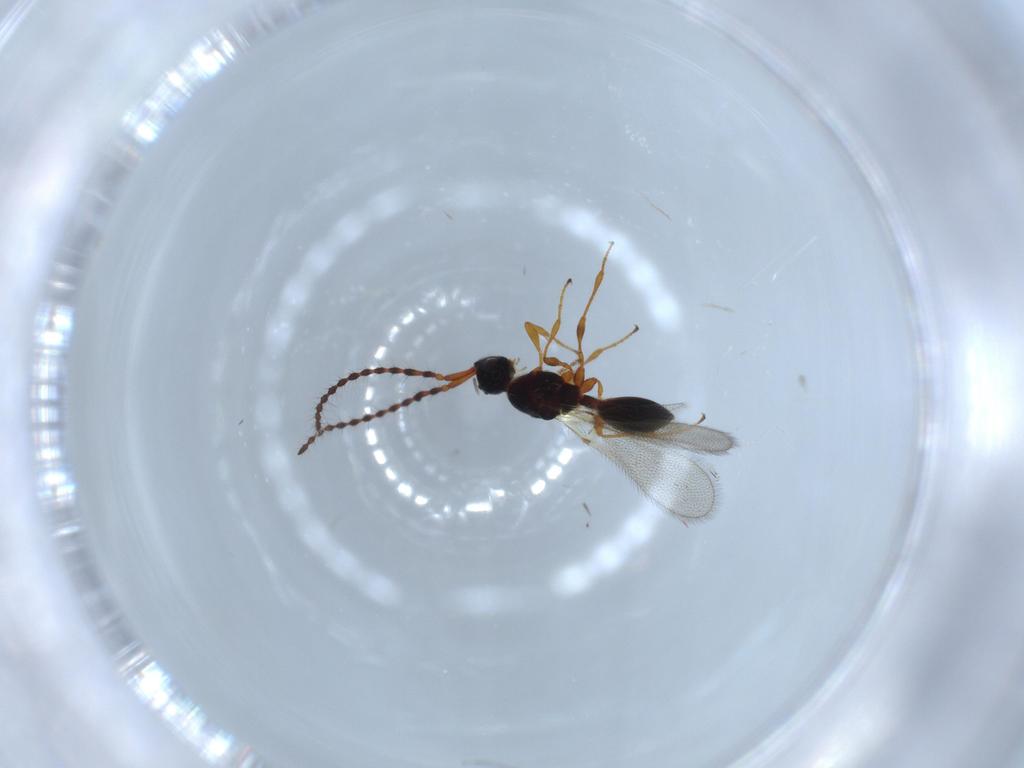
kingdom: Animalia
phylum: Arthropoda
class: Insecta
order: Hymenoptera
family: Diapriidae
